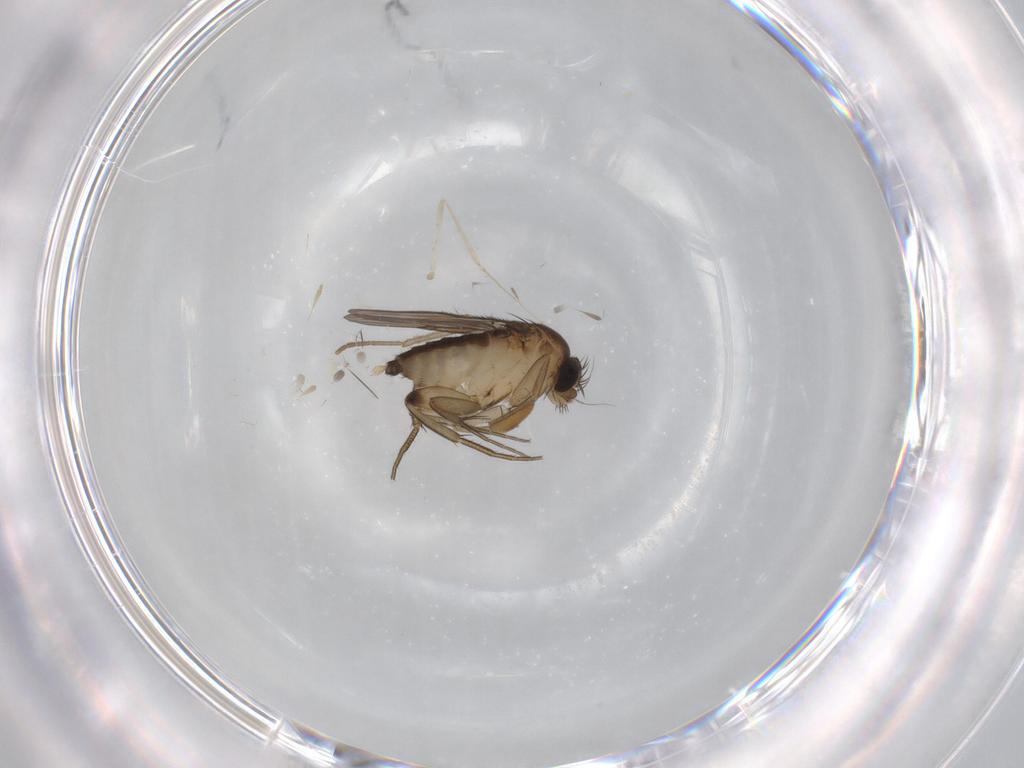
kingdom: Animalia
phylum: Arthropoda
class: Insecta
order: Diptera
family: Cecidomyiidae
